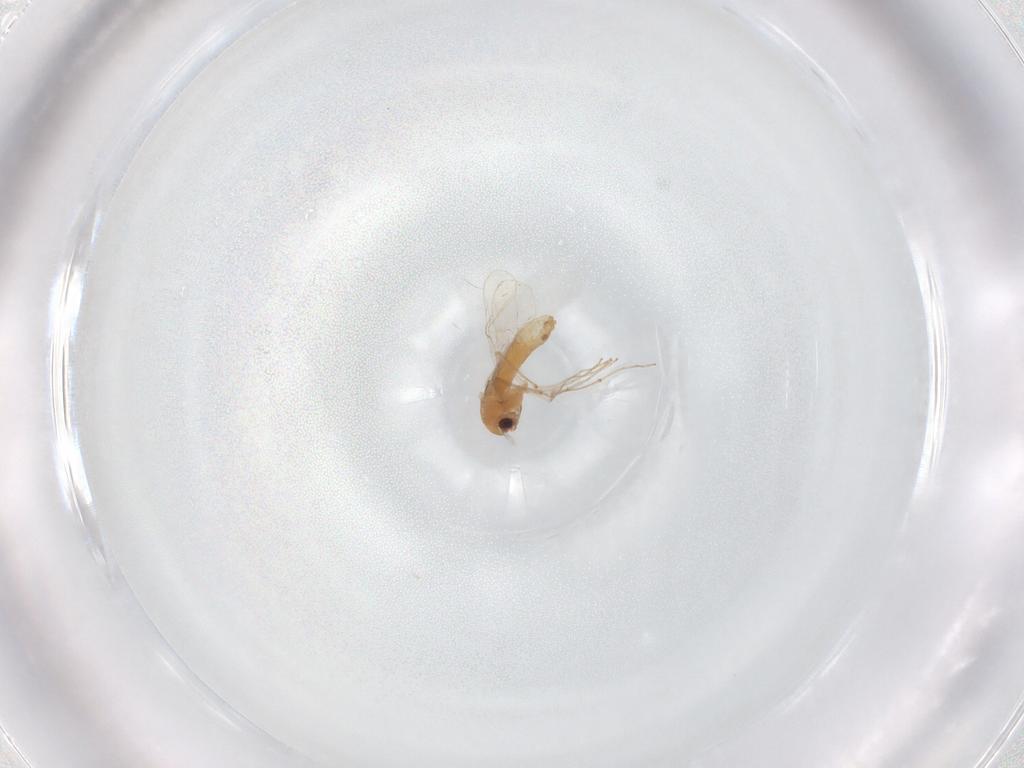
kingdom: Animalia
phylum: Arthropoda
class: Insecta
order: Diptera
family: Chironomidae
